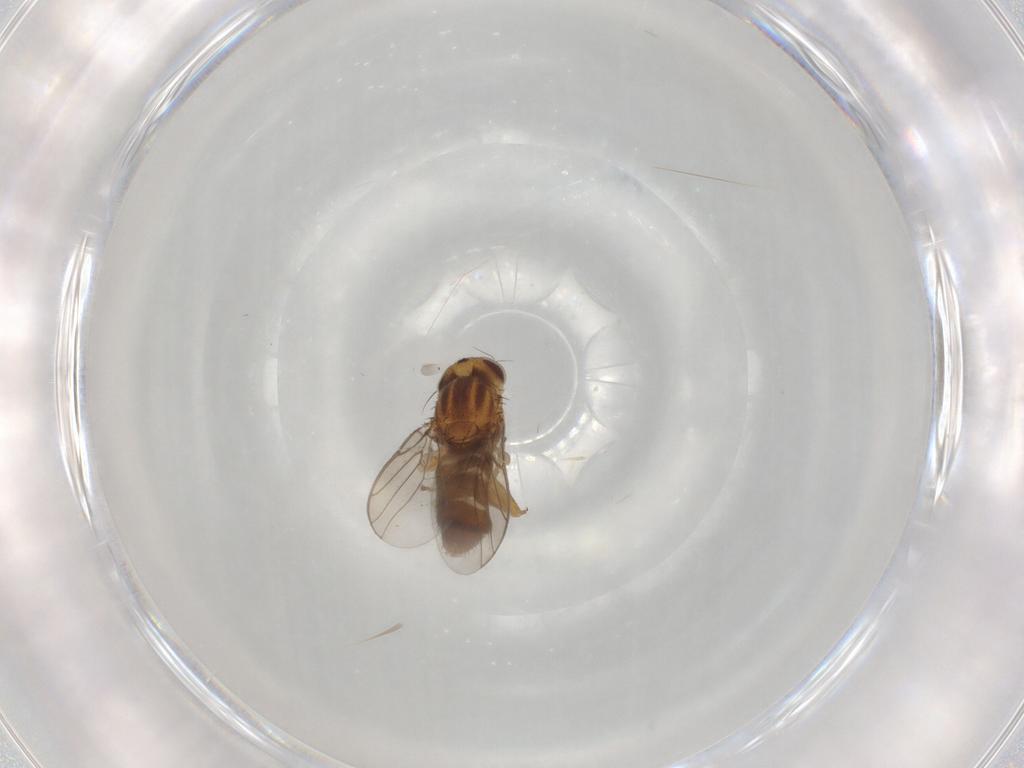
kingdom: Animalia
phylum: Arthropoda
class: Insecta
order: Diptera
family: Chloropidae
